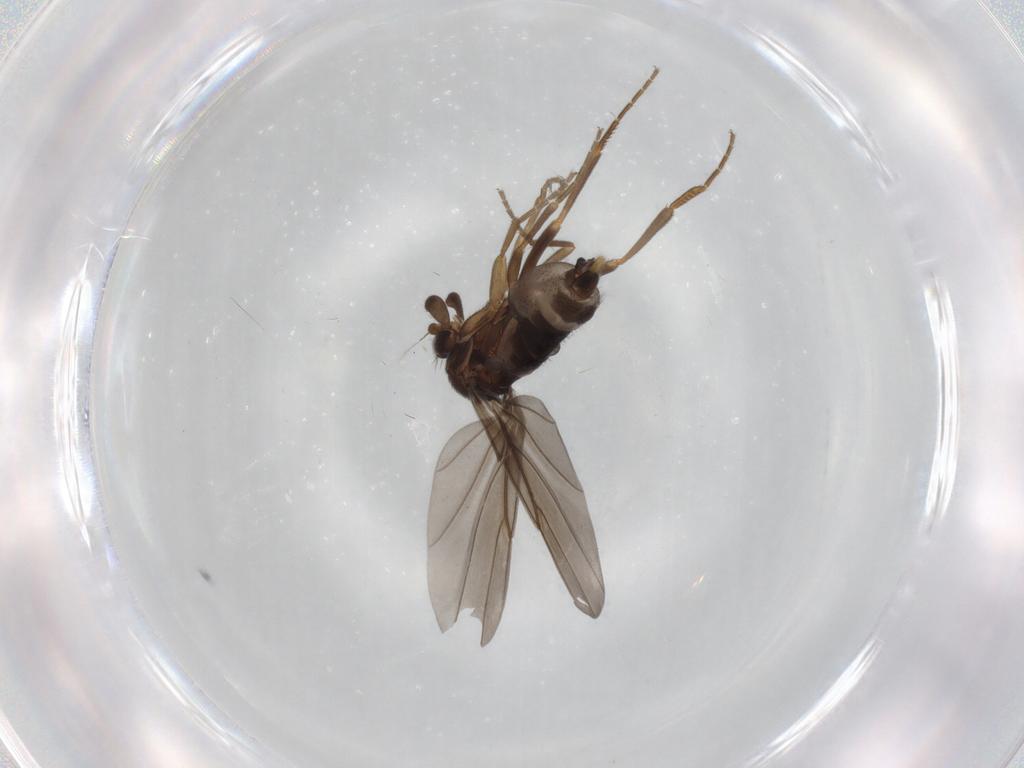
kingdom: Animalia
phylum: Arthropoda
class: Insecta
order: Diptera
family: Phoridae
